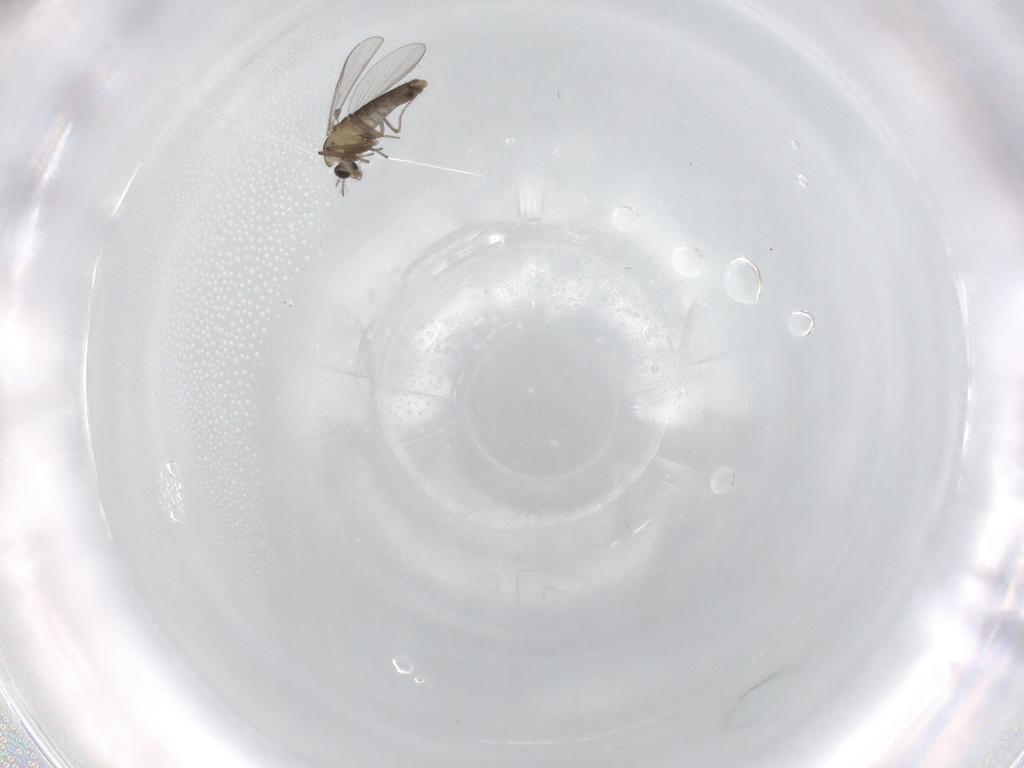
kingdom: Animalia
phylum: Arthropoda
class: Insecta
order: Diptera
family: Chironomidae
